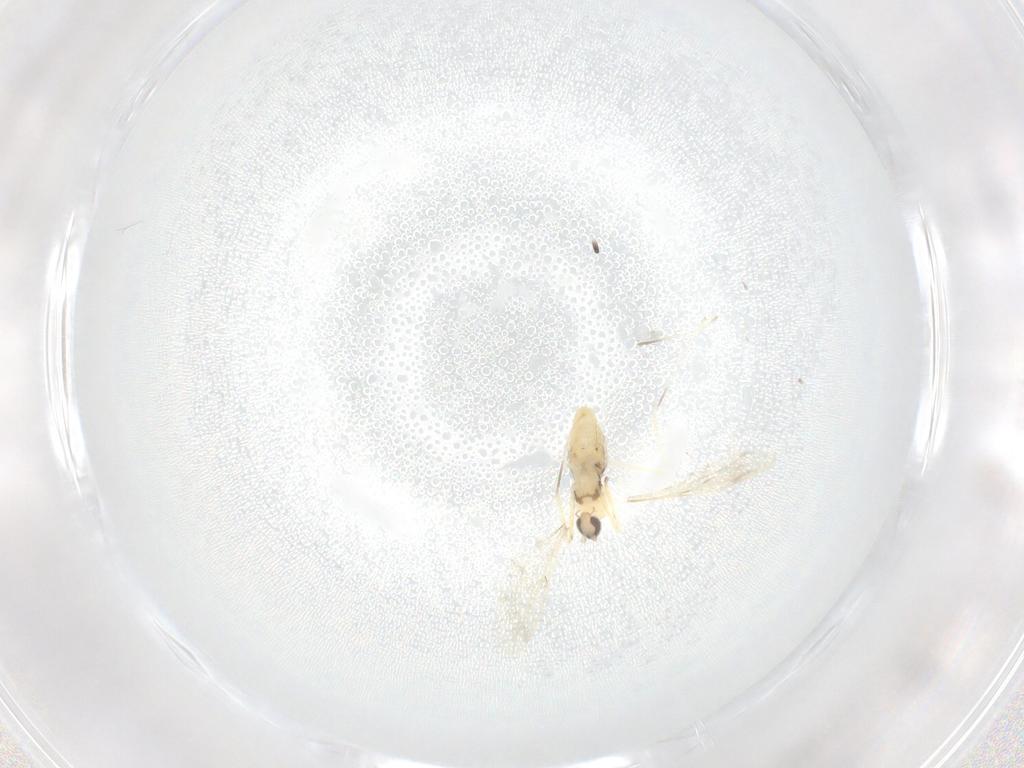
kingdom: Animalia
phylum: Arthropoda
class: Insecta
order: Diptera
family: Cecidomyiidae
